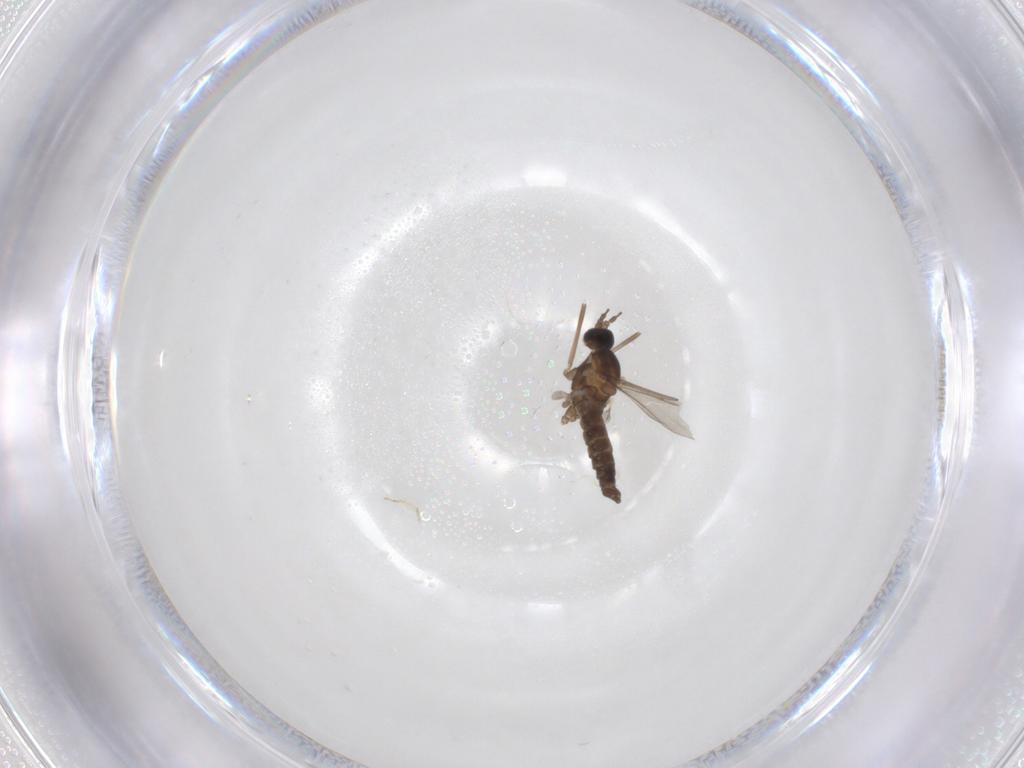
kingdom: Animalia
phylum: Arthropoda
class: Insecta
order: Diptera
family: Cecidomyiidae
